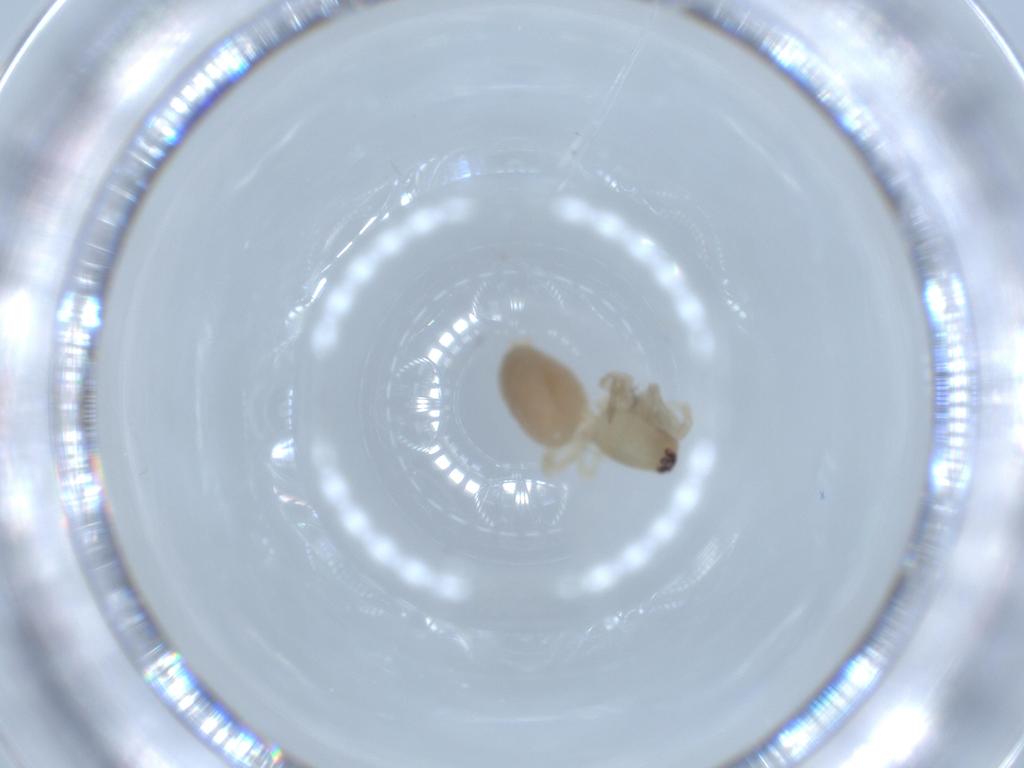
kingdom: Animalia
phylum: Arthropoda
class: Arachnida
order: Araneae
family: Anyphaenidae
